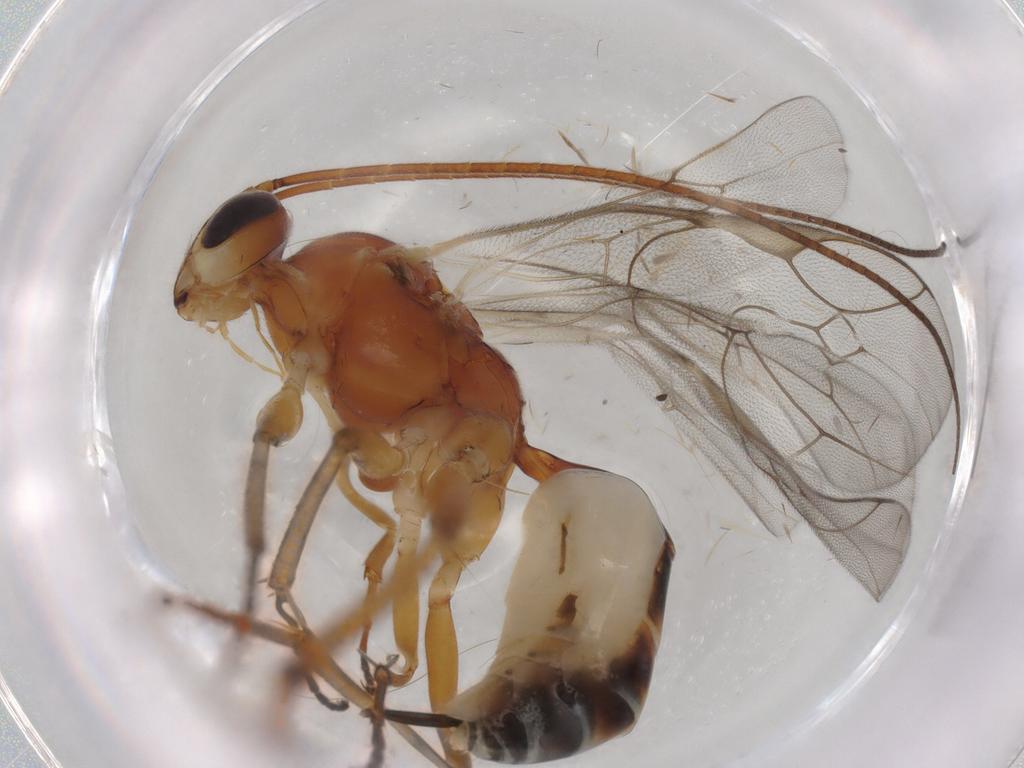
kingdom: Animalia
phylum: Arthropoda
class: Insecta
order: Hymenoptera
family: Ichneumonidae
